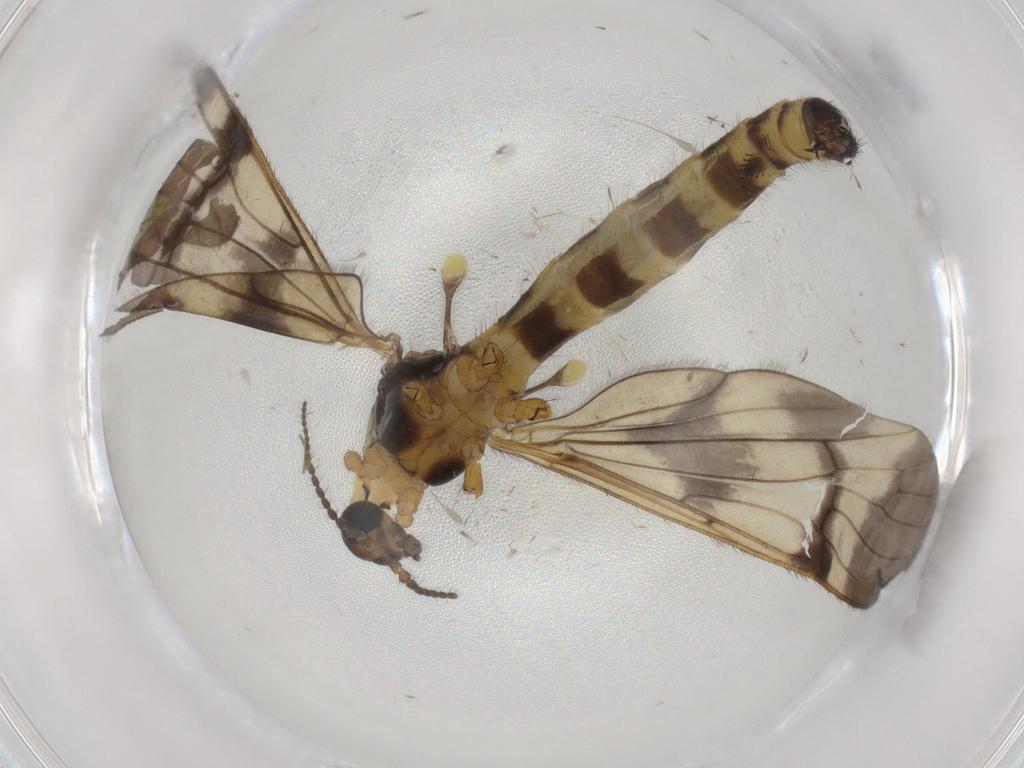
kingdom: Animalia
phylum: Arthropoda
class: Insecta
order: Diptera
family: Limoniidae
